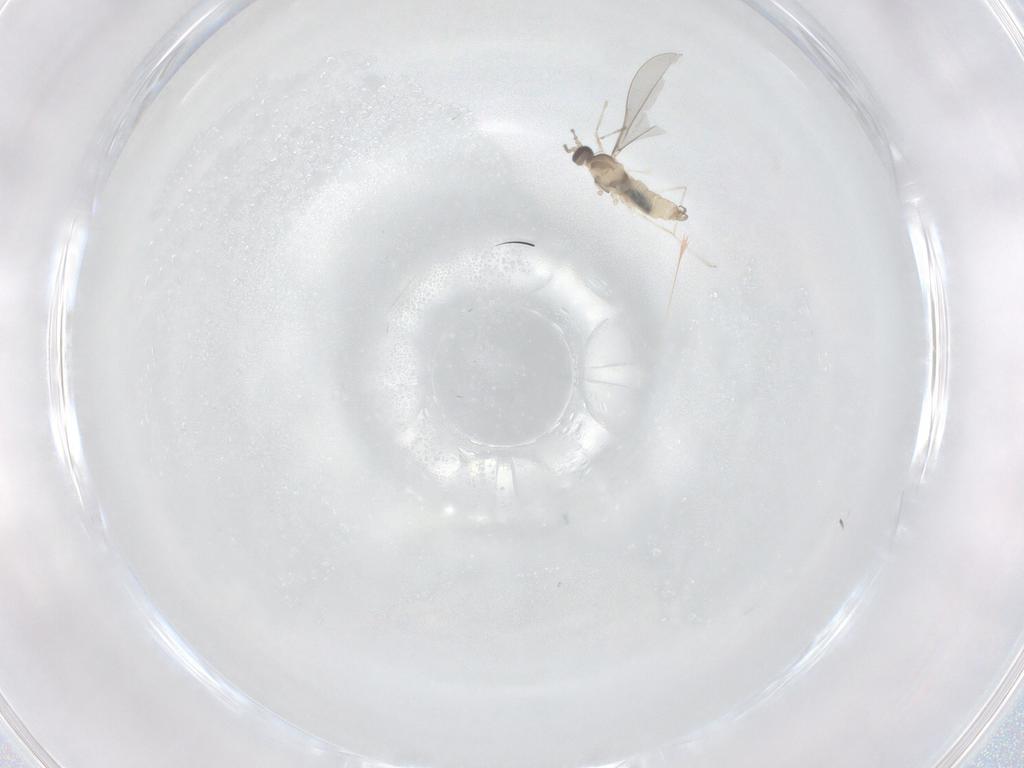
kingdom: Animalia
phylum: Arthropoda
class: Insecta
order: Diptera
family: Cecidomyiidae
